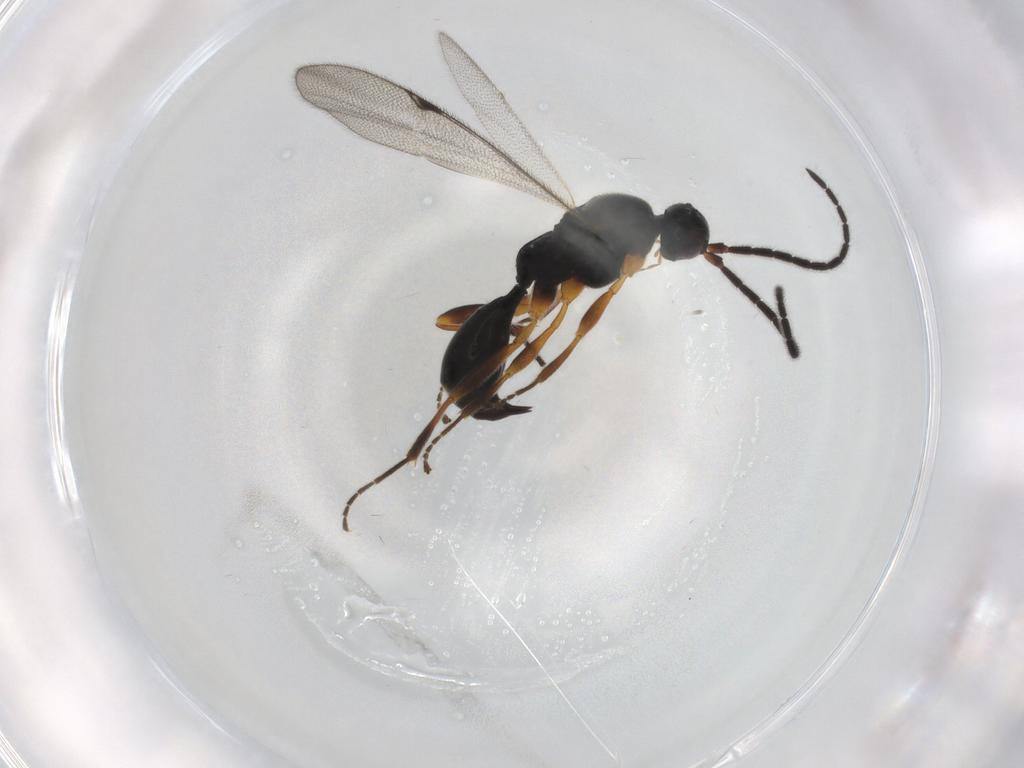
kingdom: Animalia
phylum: Arthropoda
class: Insecta
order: Hymenoptera
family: Proctotrupidae
